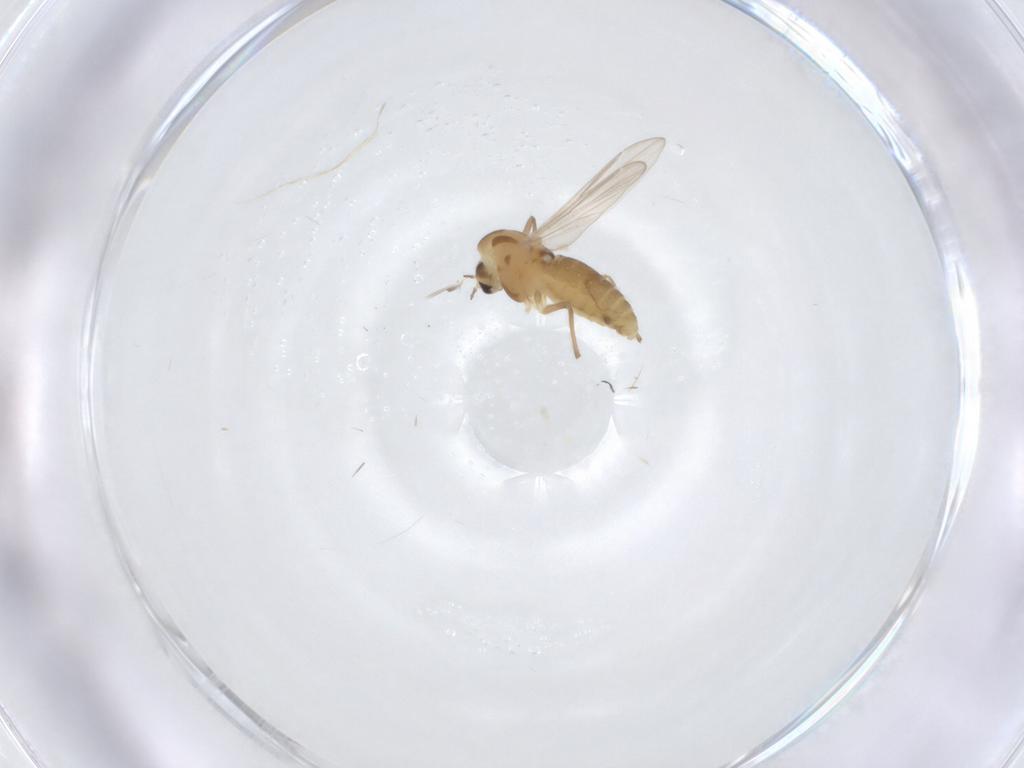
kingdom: Animalia
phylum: Arthropoda
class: Insecta
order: Diptera
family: Chironomidae
